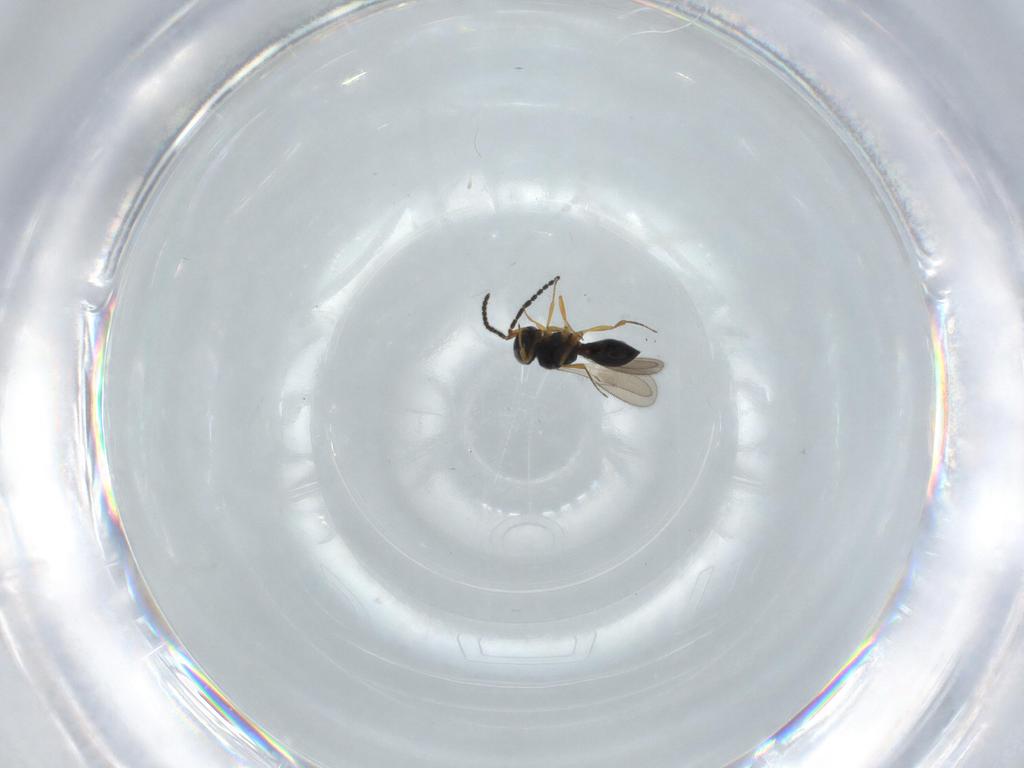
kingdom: Animalia
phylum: Arthropoda
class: Insecta
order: Hymenoptera
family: Scelionidae
